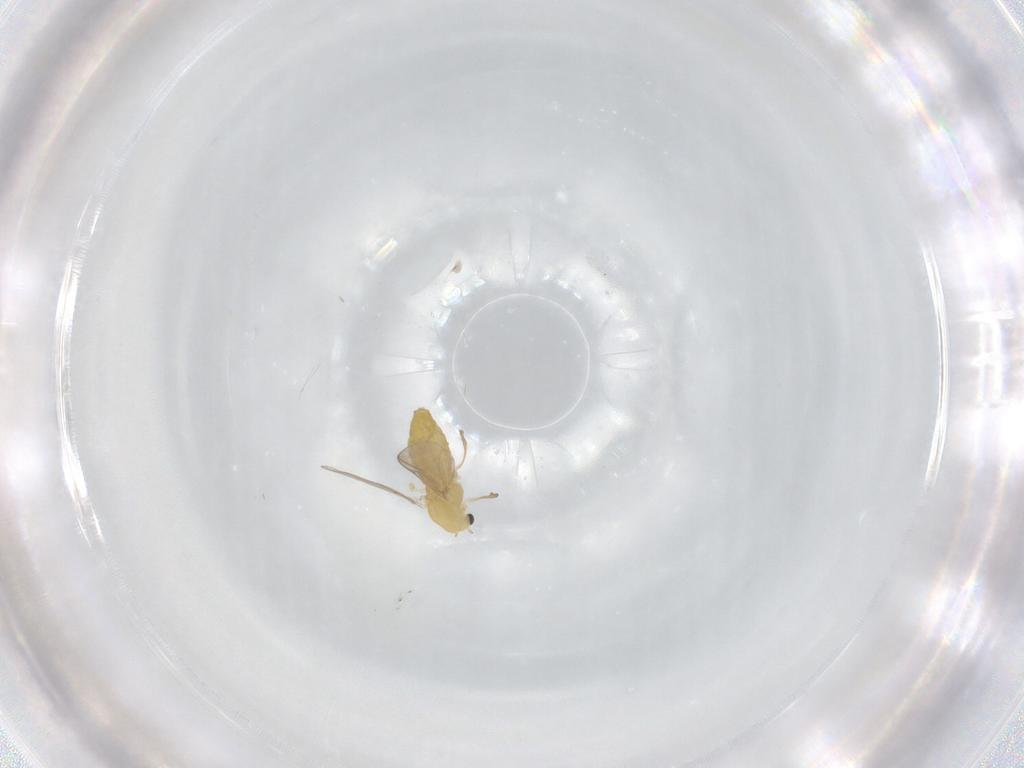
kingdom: Animalia
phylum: Arthropoda
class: Insecta
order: Diptera
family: Chironomidae
